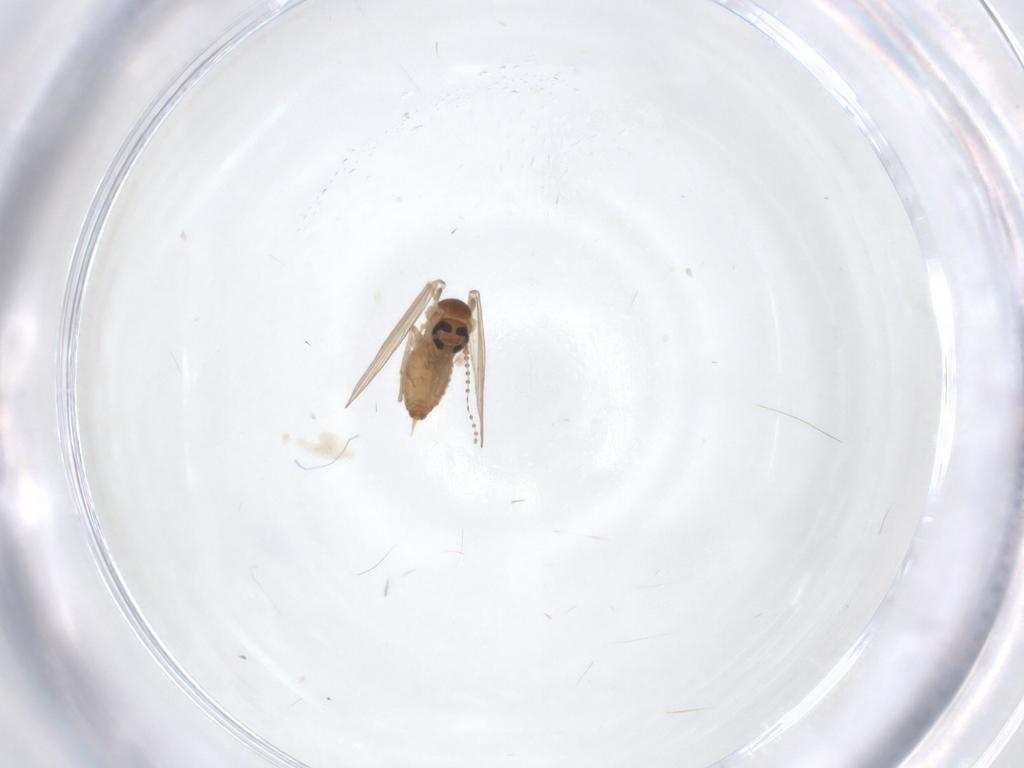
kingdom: Animalia
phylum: Arthropoda
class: Insecta
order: Diptera
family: Psychodidae
